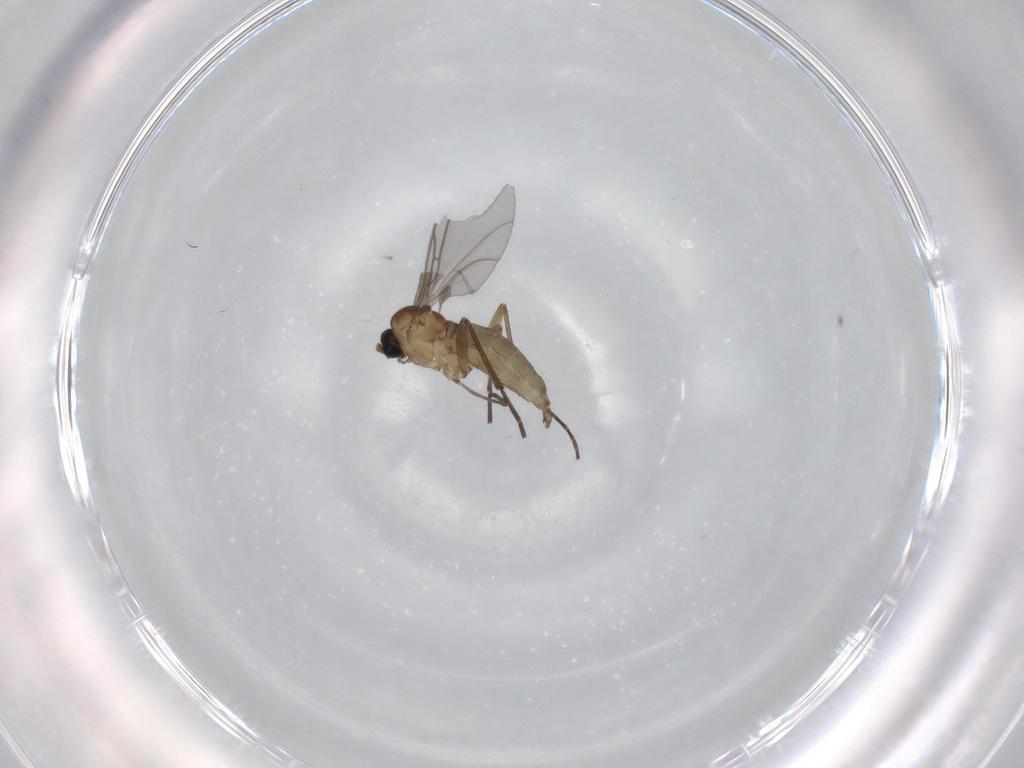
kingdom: Animalia
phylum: Arthropoda
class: Insecta
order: Diptera
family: Sciaridae
